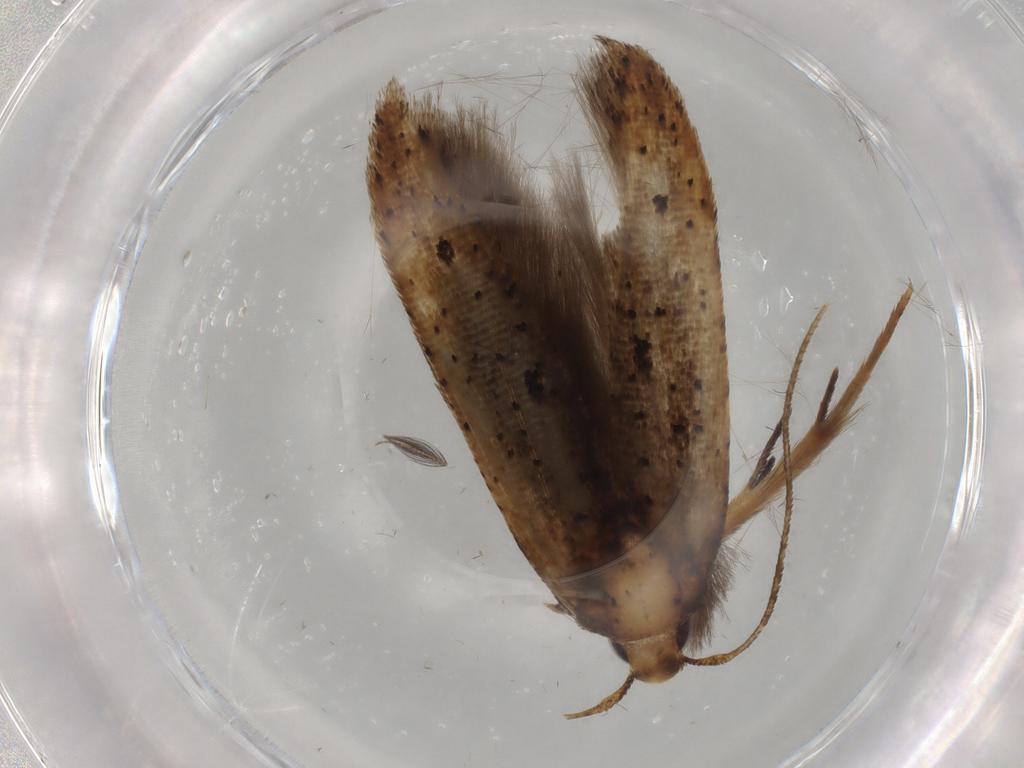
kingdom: Animalia
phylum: Arthropoda
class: Insecta
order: Lepidoptera
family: Cosmopterigidae
